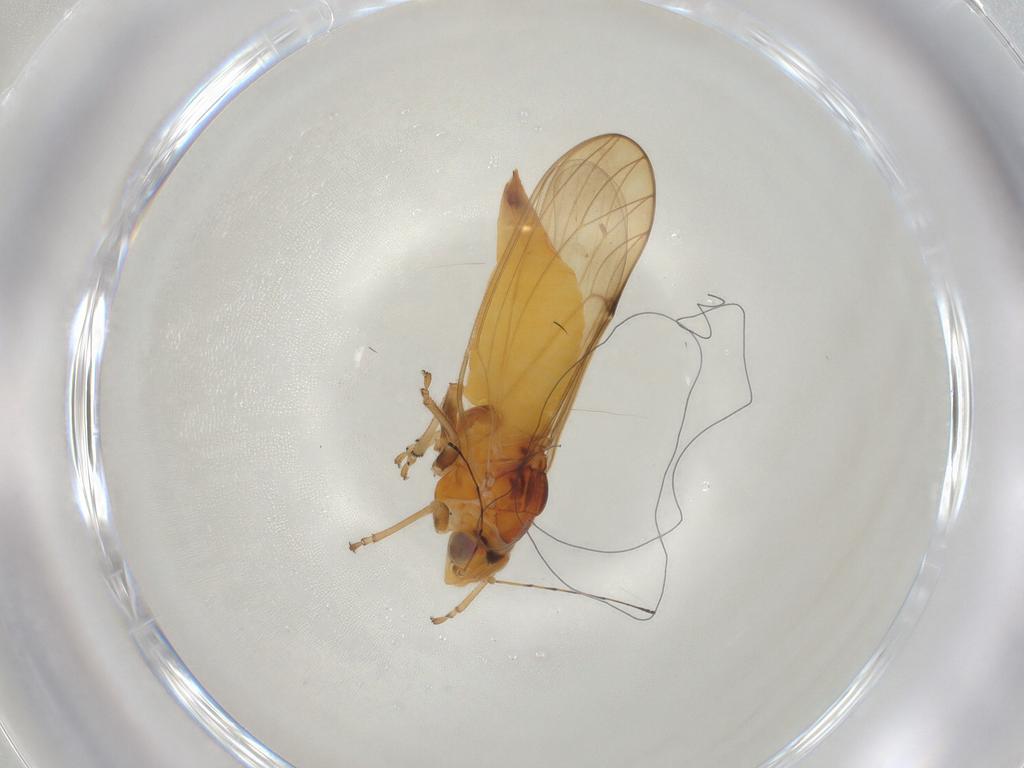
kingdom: Animalia
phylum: Arthropoda
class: Insecta
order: Hemiptera
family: Psylloidea_incertae_sedis
